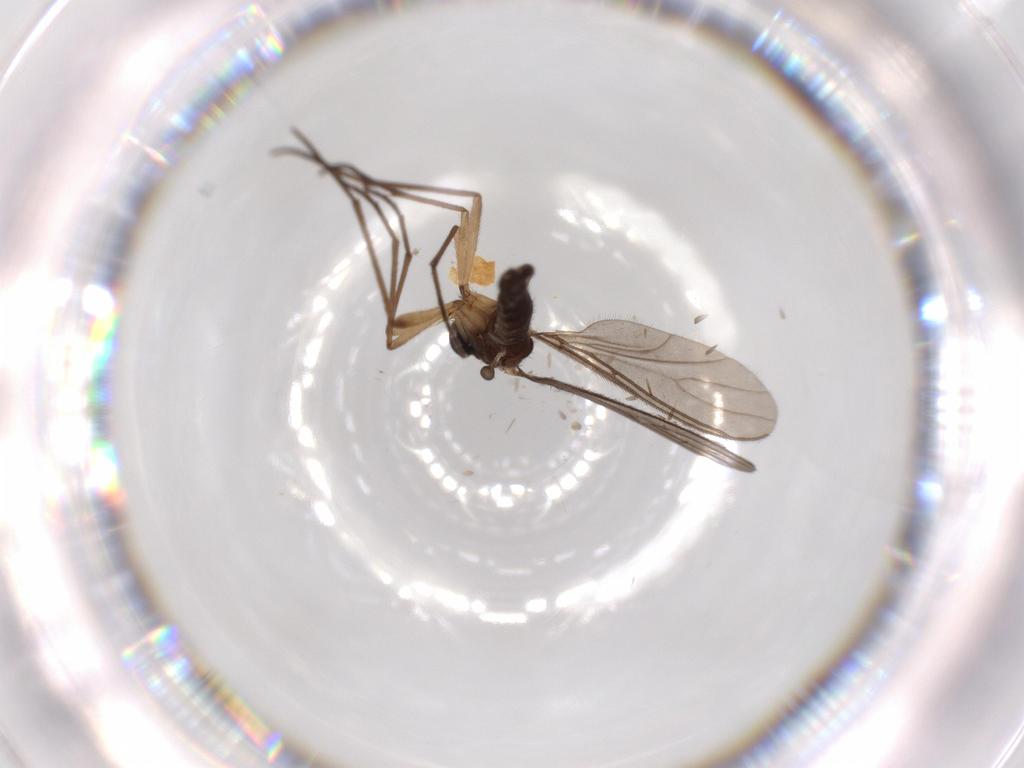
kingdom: Animalia
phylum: Arthropoda
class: Insecta
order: Diptera
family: Sciaridae
